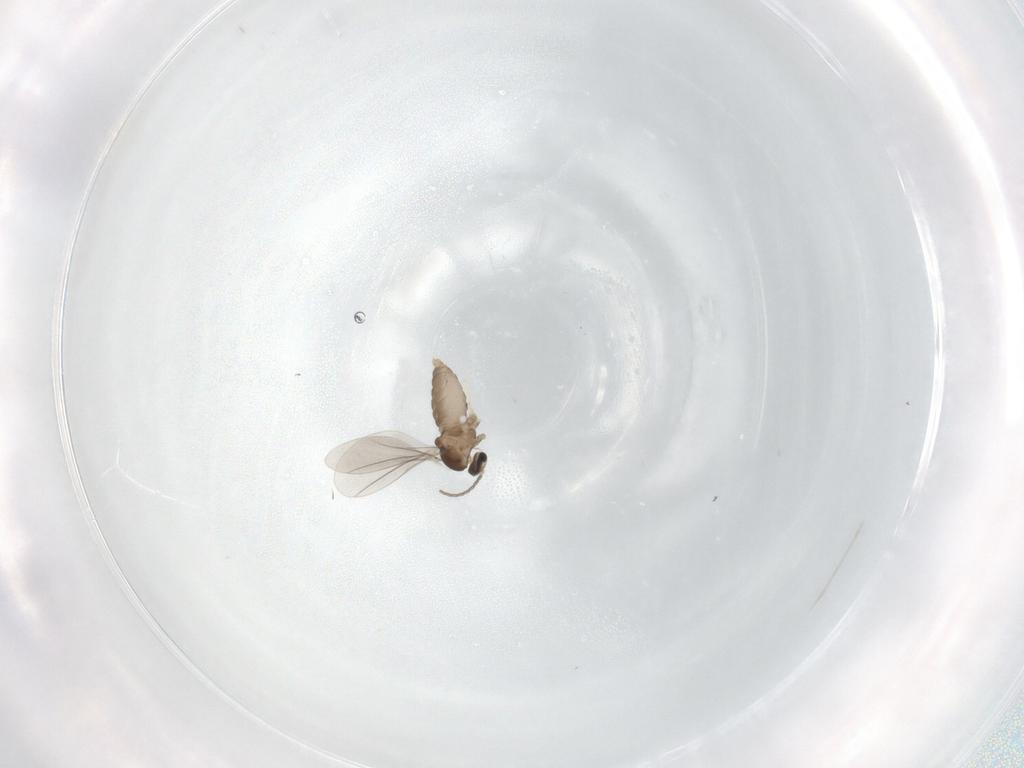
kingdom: Animalia
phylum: Arthropoda
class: Insecta
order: Diptera
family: Cecidomyiidae
